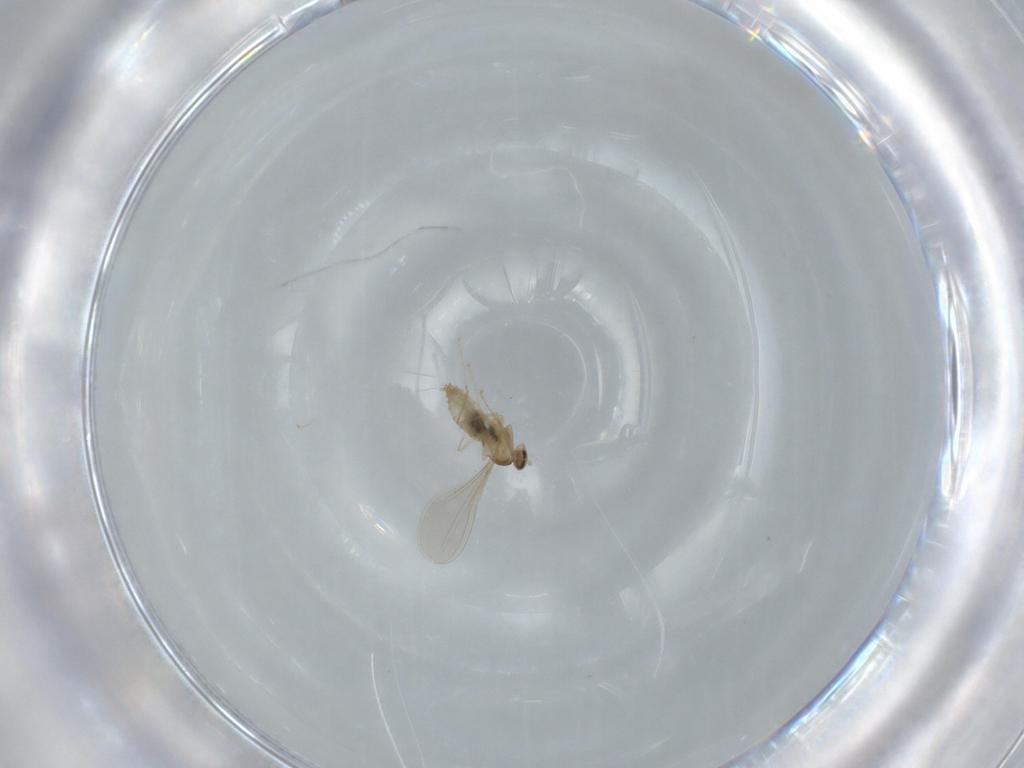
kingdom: Animalia
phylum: Arthropoda
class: Insecta
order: Diptera
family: Cecidomyiidae
